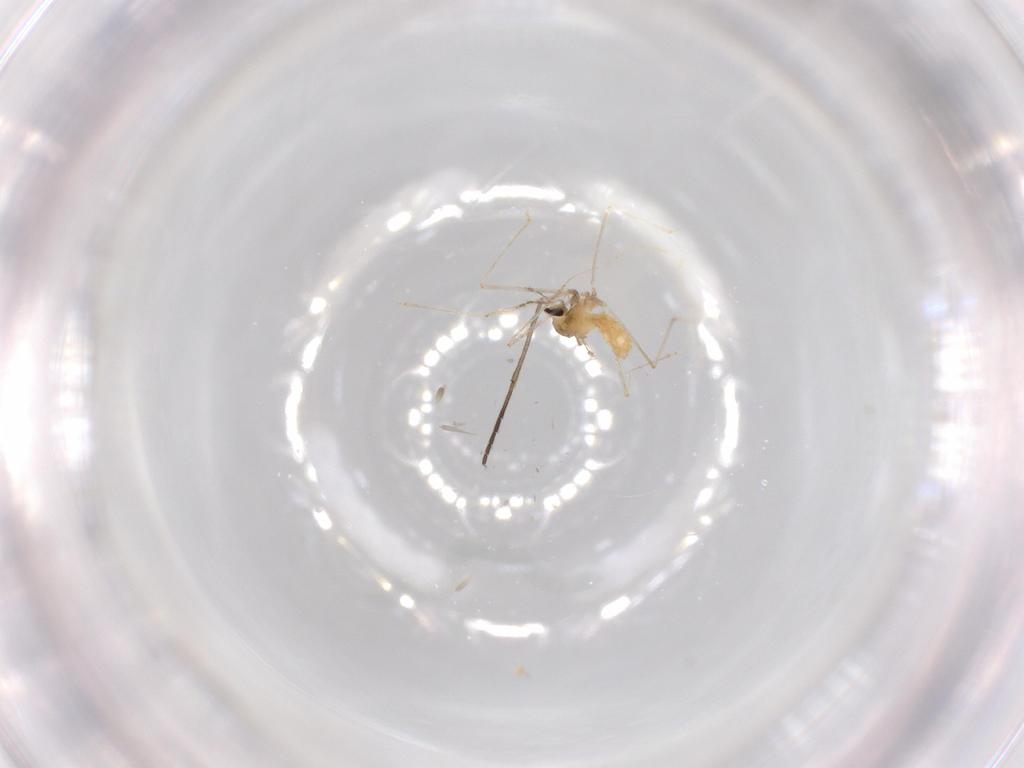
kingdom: Animalia
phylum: Arthropoda
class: Insecta
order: Diptera
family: Cecidomyiidae
